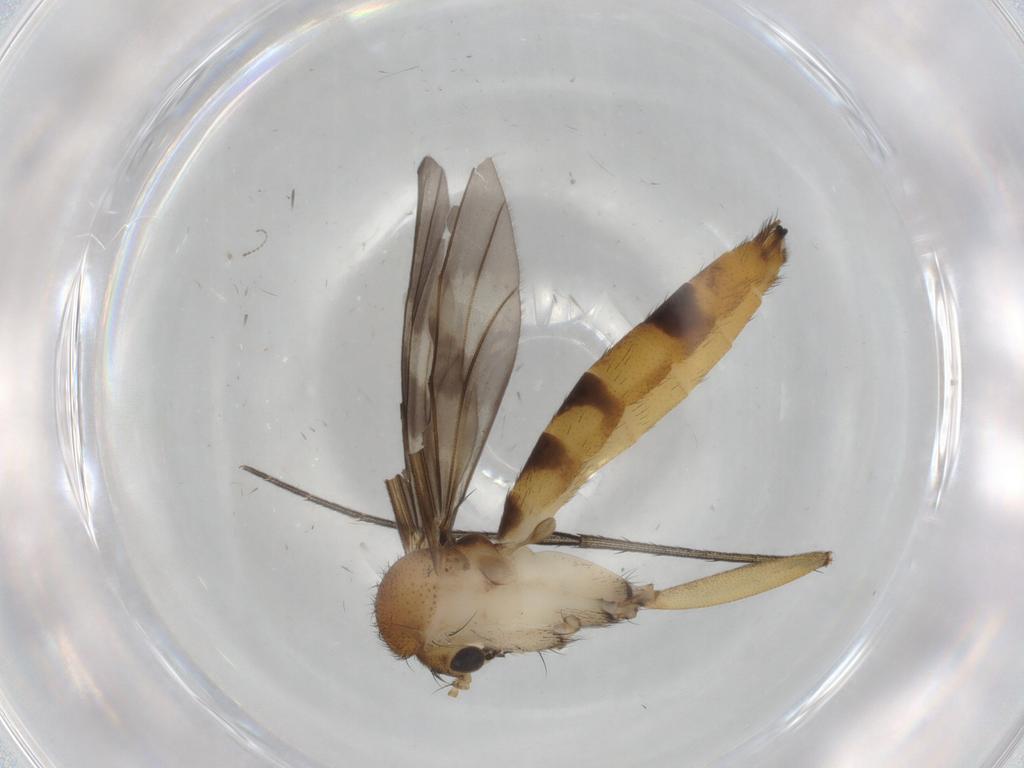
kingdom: Animalia
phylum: Arthropoda
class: Insecta
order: Diptera
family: Mycetophilidae
